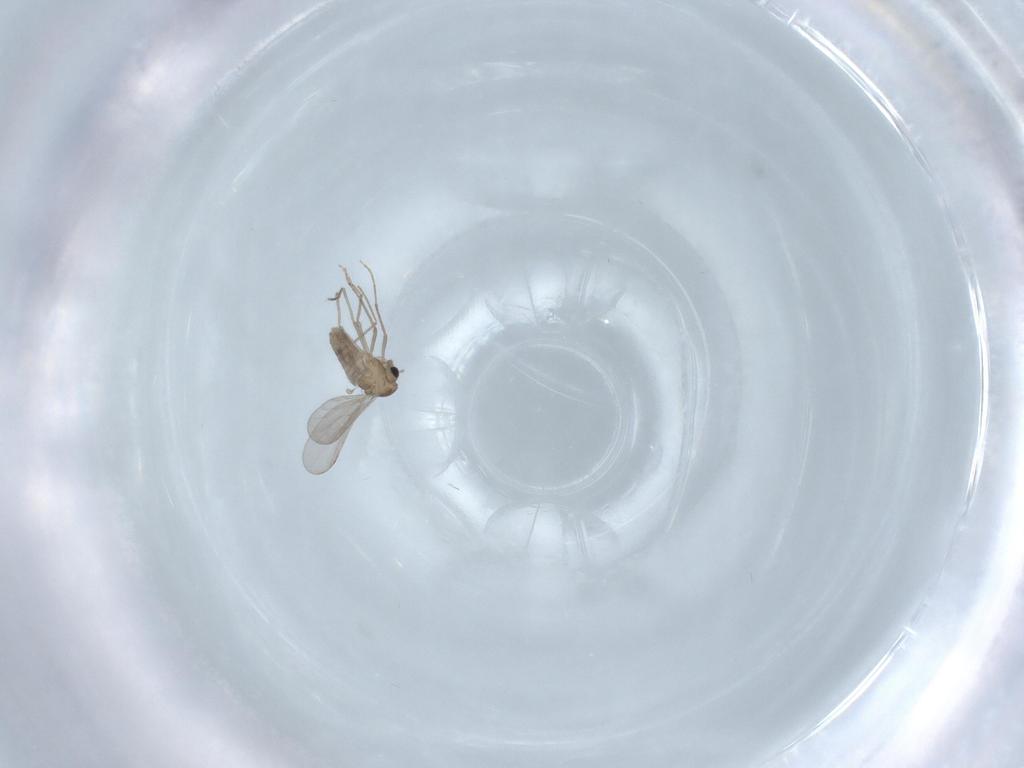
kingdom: Animalia
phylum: Arthropoda
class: Insecta
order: Diptera
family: Chironomidae
